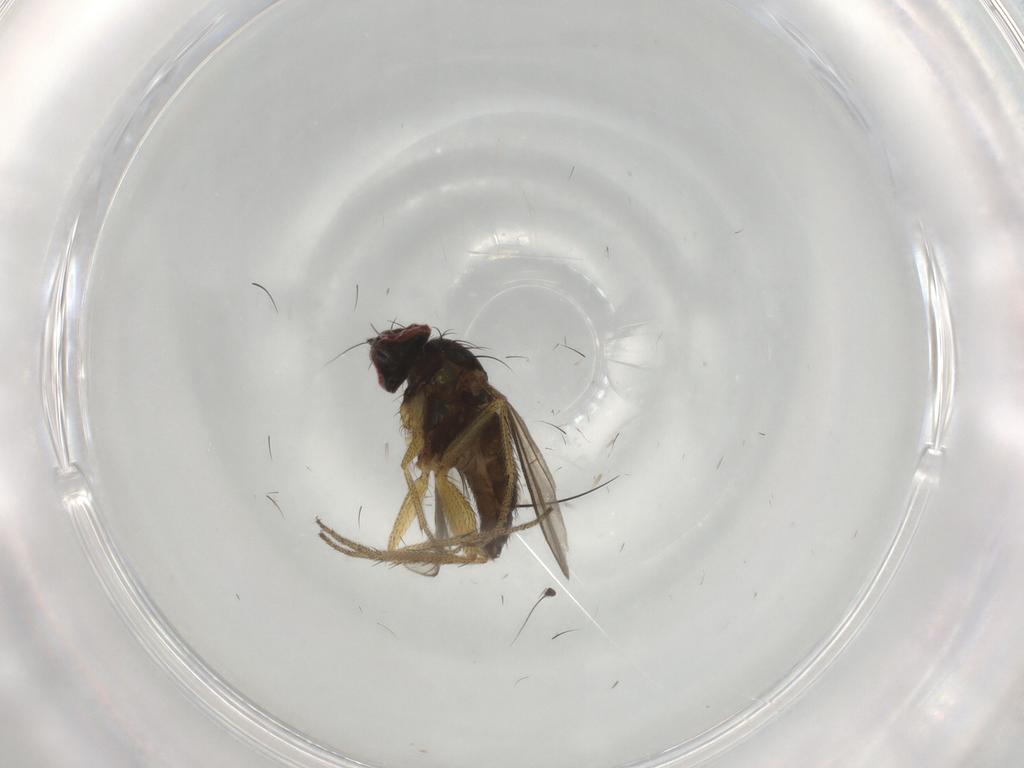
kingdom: Animalia
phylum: Arthropoda
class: Insecta
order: Diptera
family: Dolichopodidae
